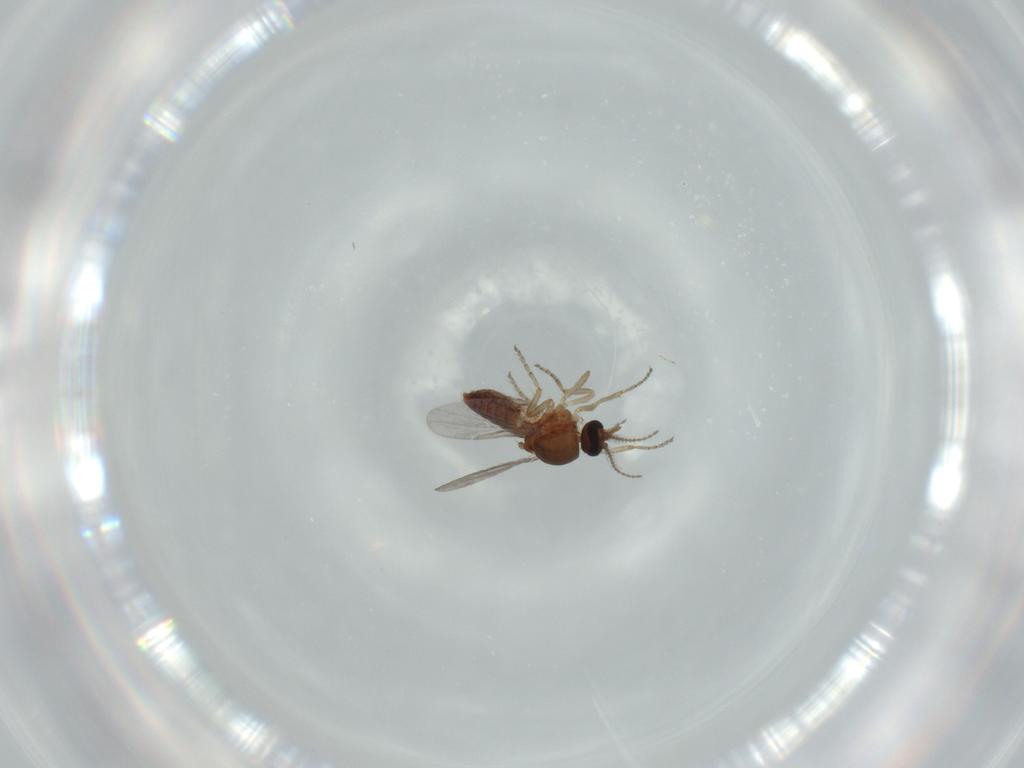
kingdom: Animalia
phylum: Arthropoda
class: Insecta
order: Diptera
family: Ceratopogonidae
